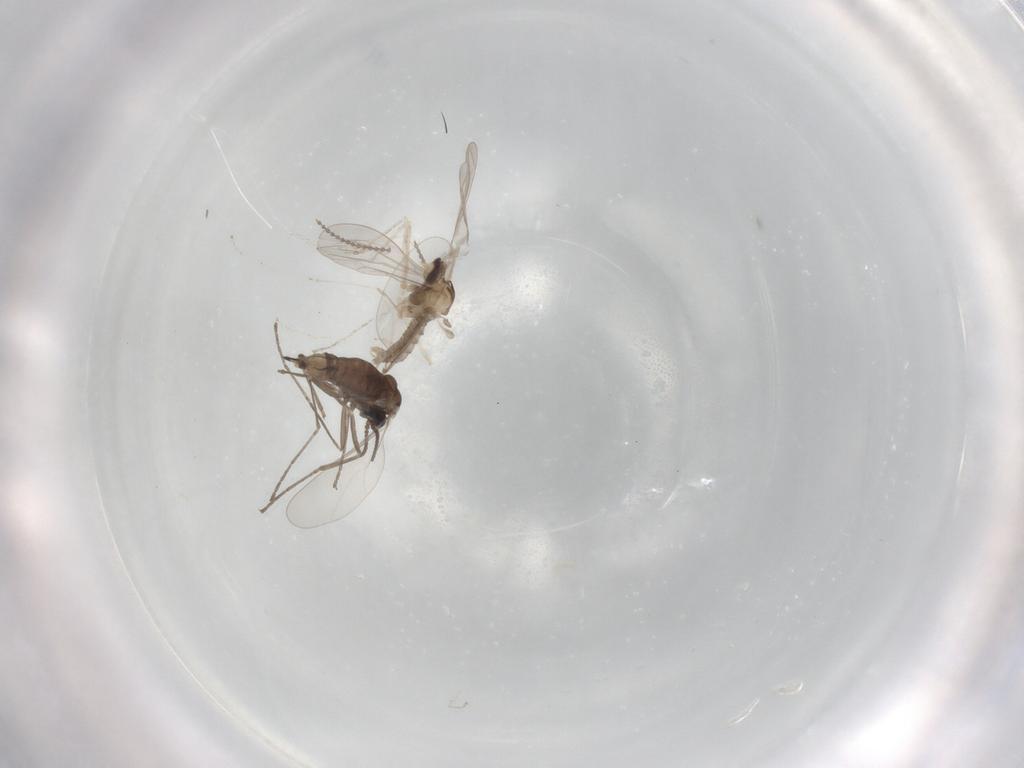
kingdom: Animalia
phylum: Arthropoda
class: Insecta
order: Diptera
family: Cecidomyiidae
